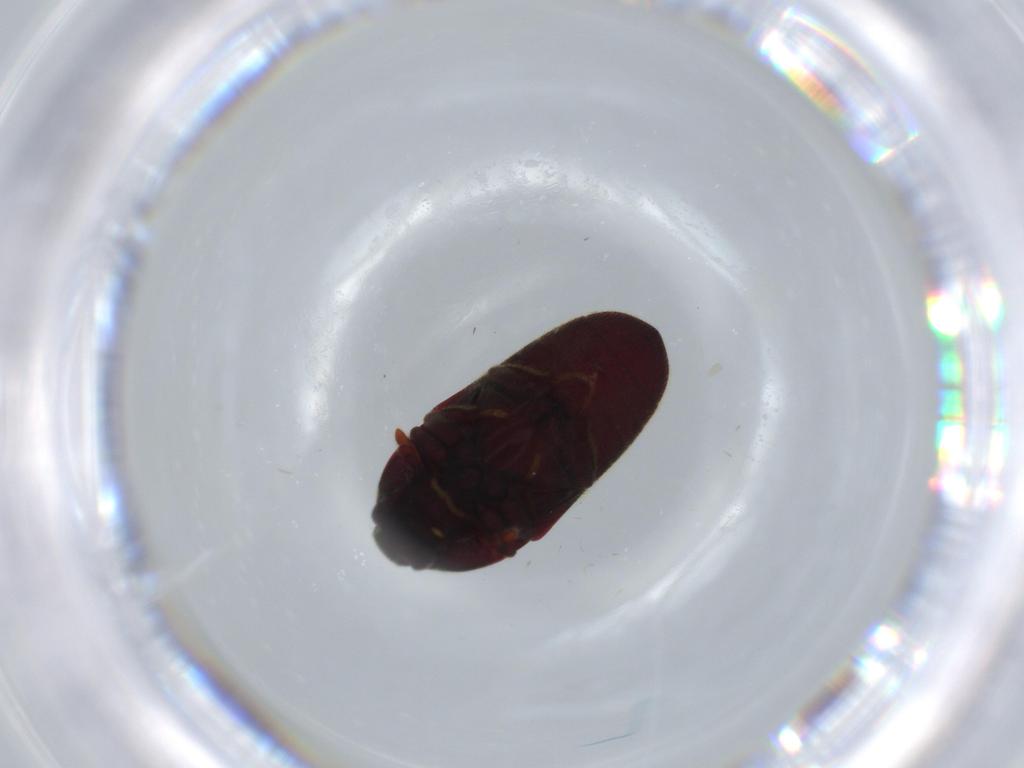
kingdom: Animalia
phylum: Arthropoda
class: Insecta
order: Coleoptera
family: Throscidae
